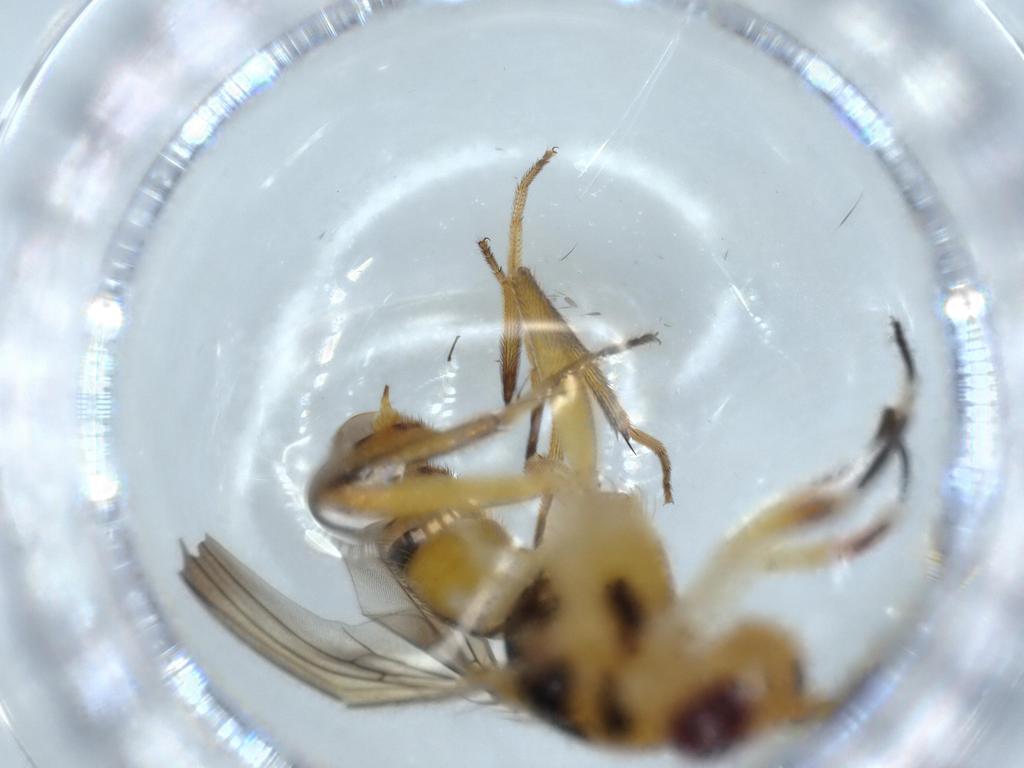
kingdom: Animalia
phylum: Arthropoda
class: Insecta
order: Diptera
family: Clusiidae
